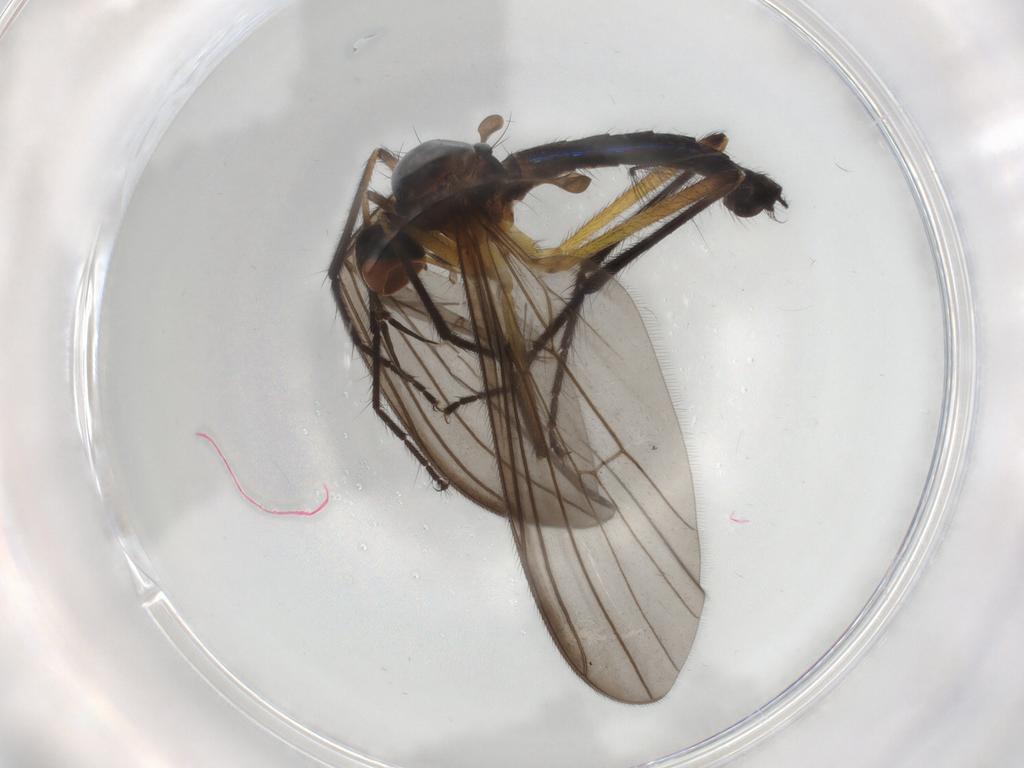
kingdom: Animalia
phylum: Arthropoda
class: Insecta
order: Diptera
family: Empididae
